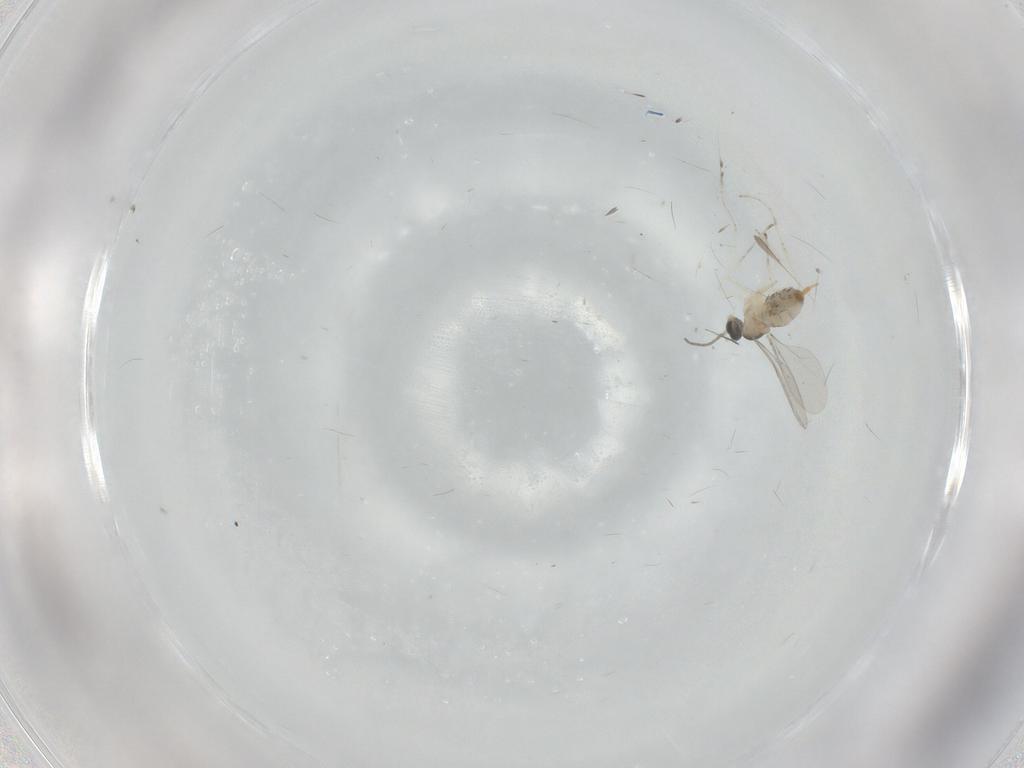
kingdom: Animalia
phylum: Arthropoda
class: Insecta
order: Diptera
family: Cecidomyiidae
